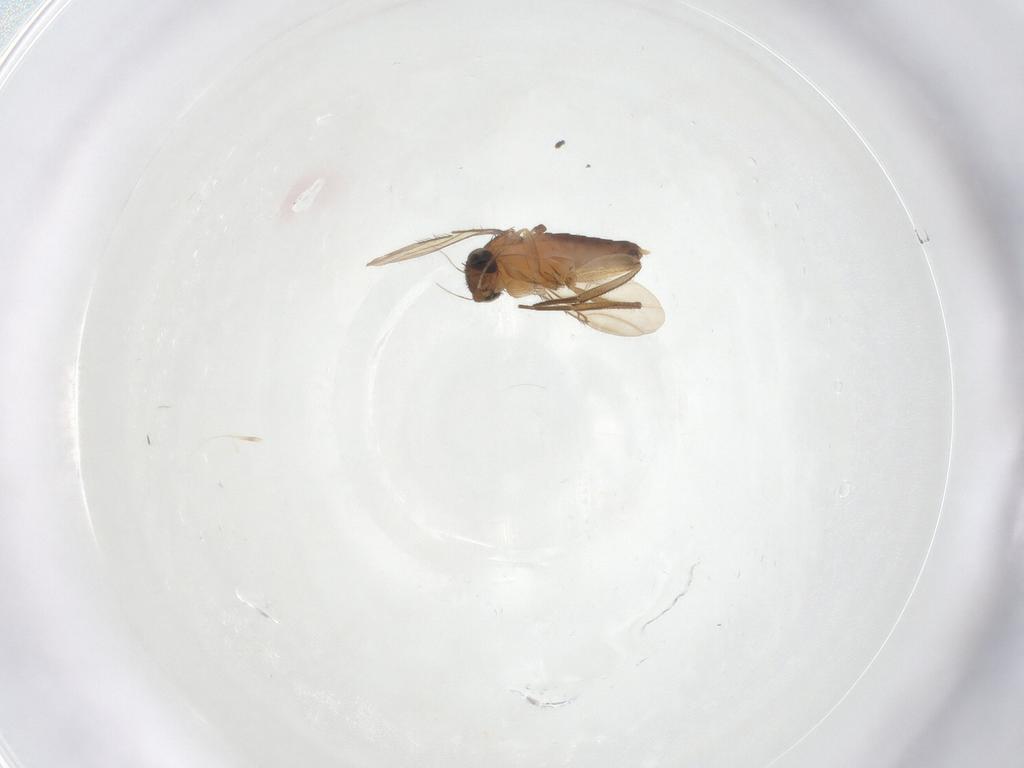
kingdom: Animalia
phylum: Arthropoda
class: Insecta
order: Diptera
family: Phoridae
